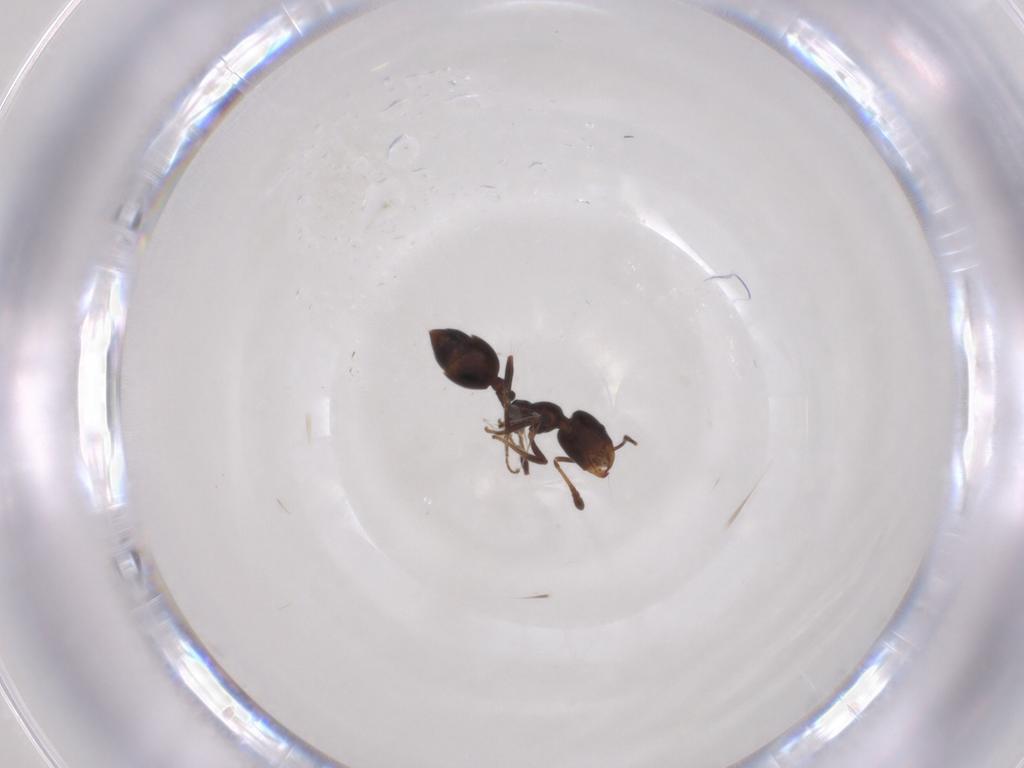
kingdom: Animalia
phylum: Arthropoda
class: Insecta
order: Hymenoptera
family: Formicidae
